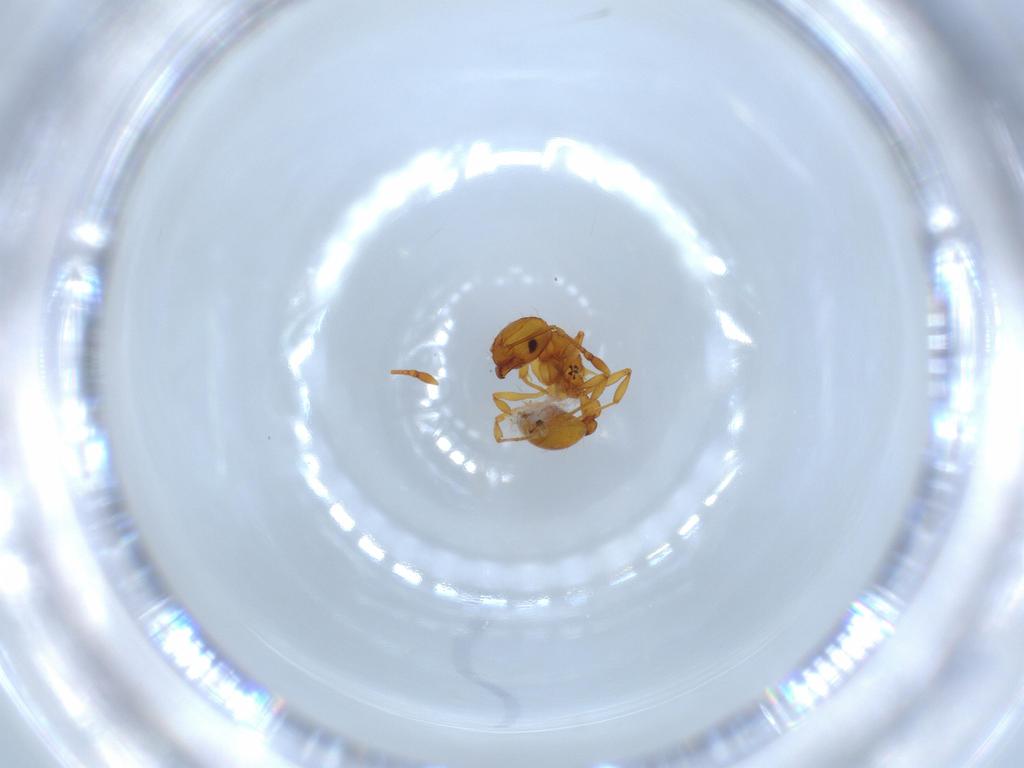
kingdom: Animalia
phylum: Arthropoda
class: Insecta
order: Hymenoptera
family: Formicidae
